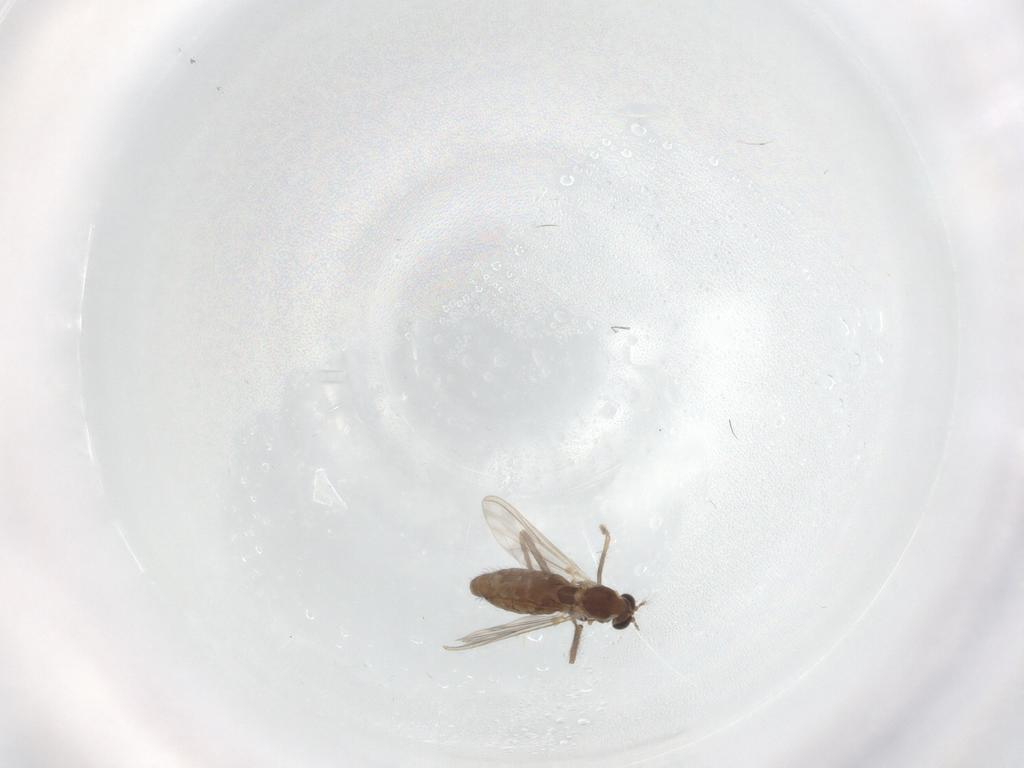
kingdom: Animalia
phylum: Arthropoda
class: Insecta
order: Diptera
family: Chironomidae
